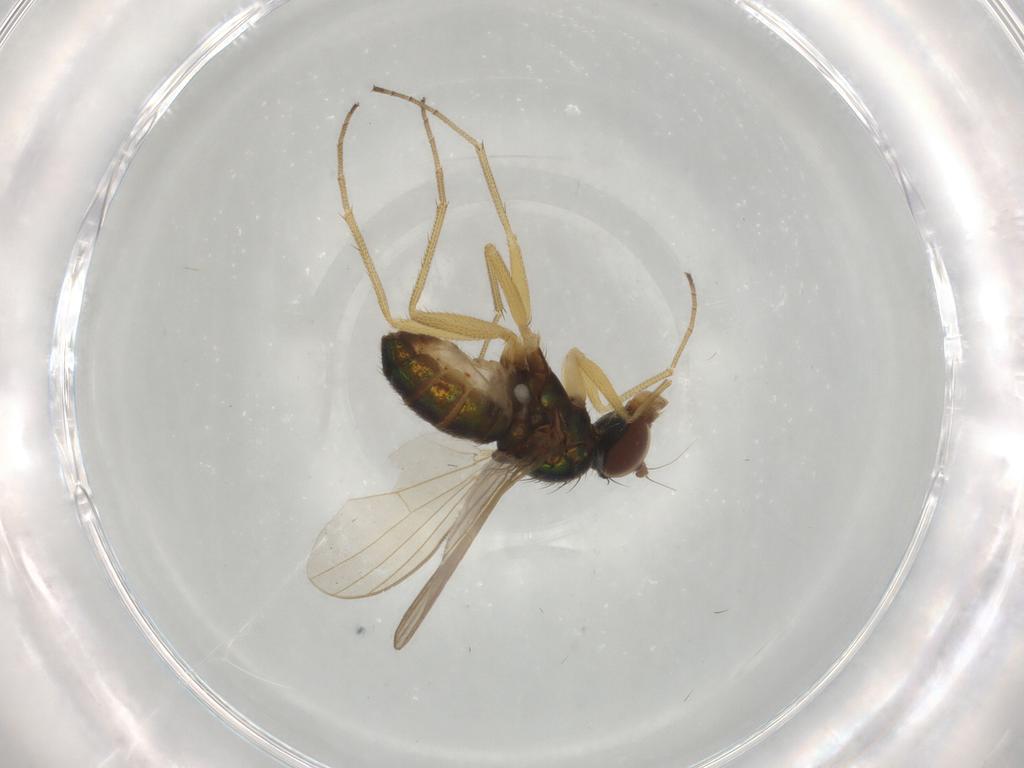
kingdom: Animalia
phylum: Arthropoda
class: Insecta
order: Diptera
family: Dolichopodidae
